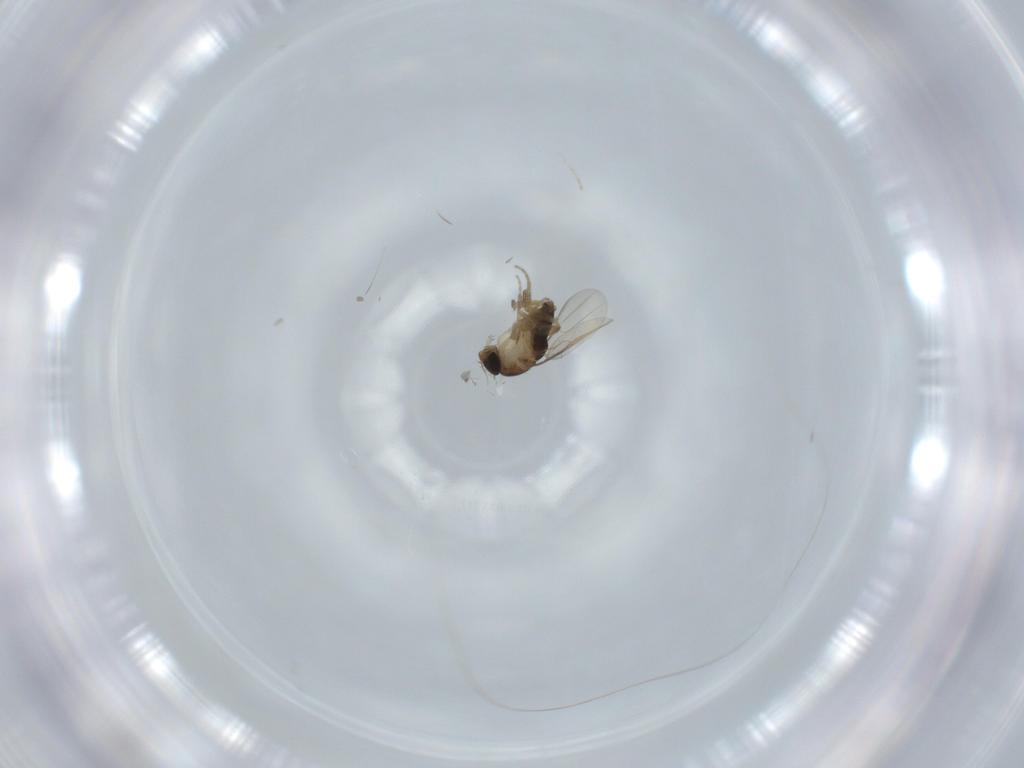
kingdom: Animalia
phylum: Arthropoda
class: Insecta
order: Diptera
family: Phoridae
